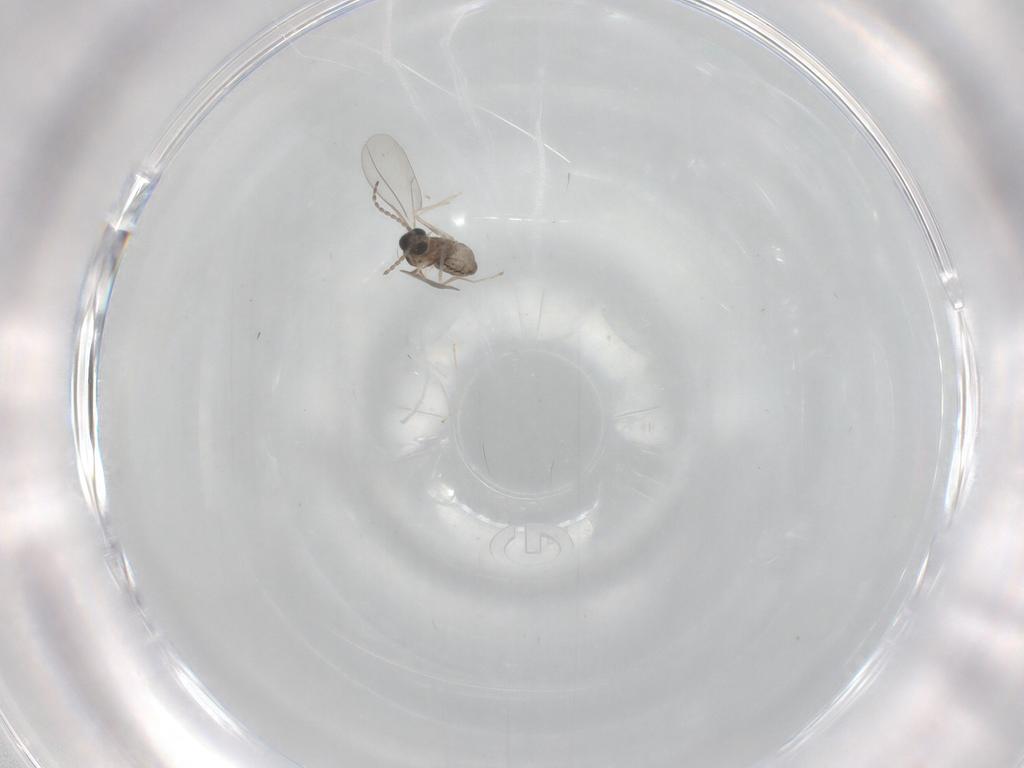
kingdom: Animalia
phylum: Arthropoda
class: Insecta
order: Diptera
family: Cecidomyiidae
